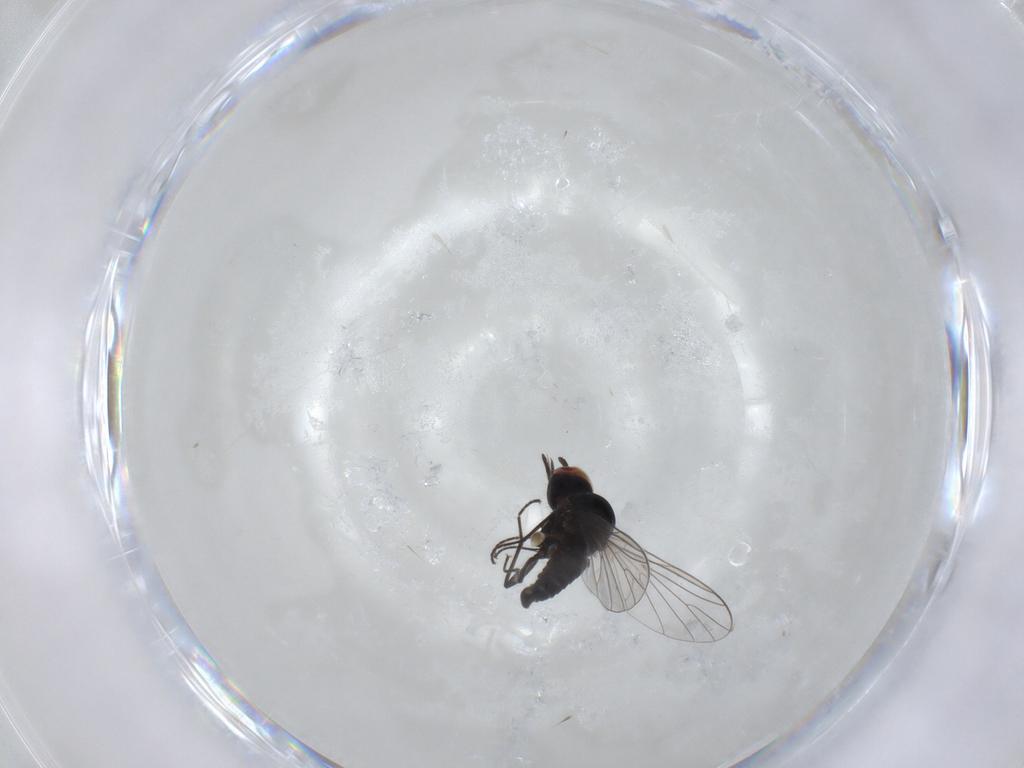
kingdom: Animalia
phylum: Arthropoda
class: Insecta
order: Diptera
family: Bombyliidae
